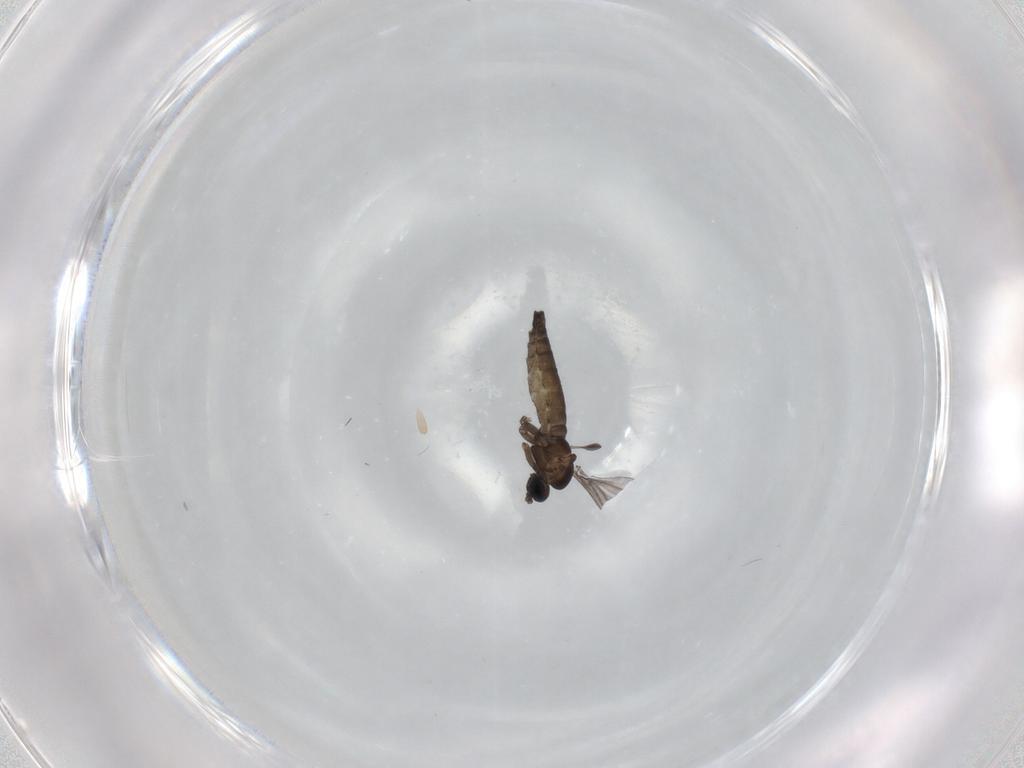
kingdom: Animalia
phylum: Arthropoda
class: Insecta
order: Diptera
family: Sciaridae
